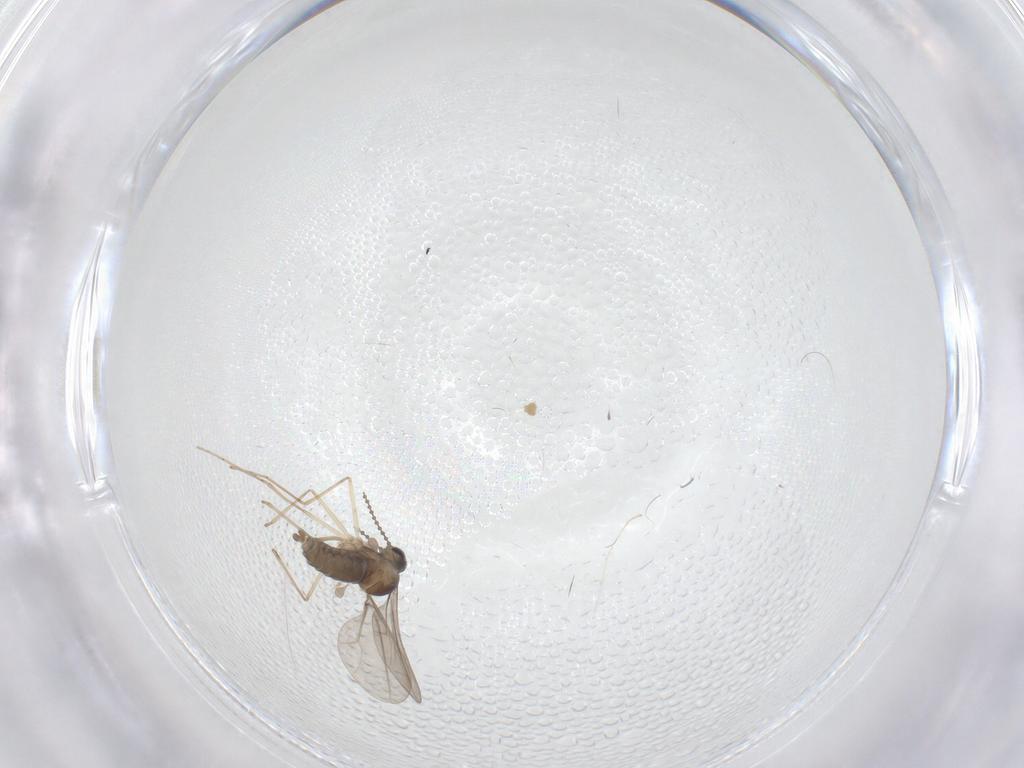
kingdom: Animalia
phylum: Arthropoda
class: Insecta
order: Diptera
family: Cecidomyiidae
